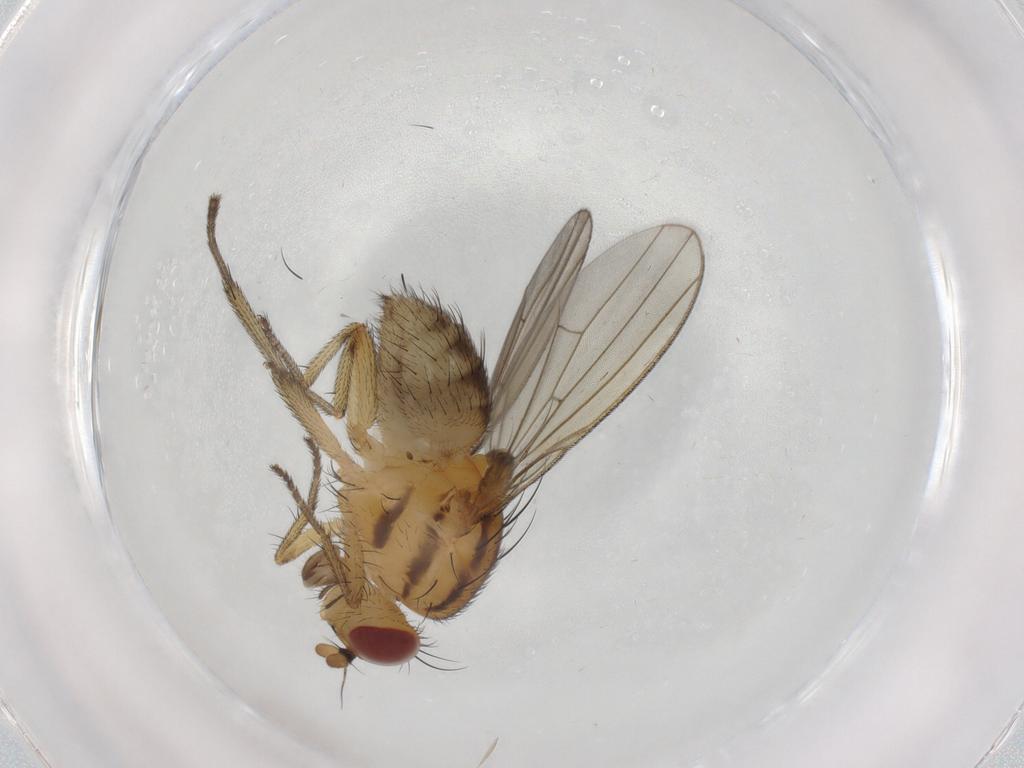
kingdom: Animalia
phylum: Arthropoda
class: Insecta
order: Diptera
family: Dolichopodidae
